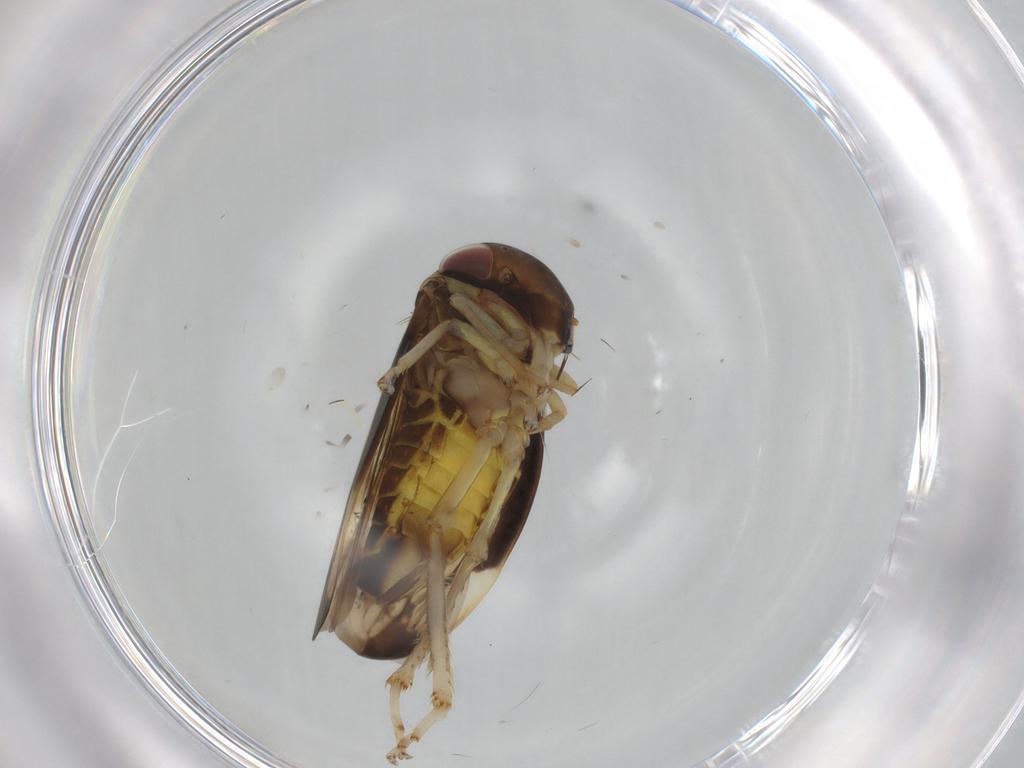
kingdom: Animalia
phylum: Arthropoda
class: Insecta
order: Hemiptera
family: Cicadellidae
